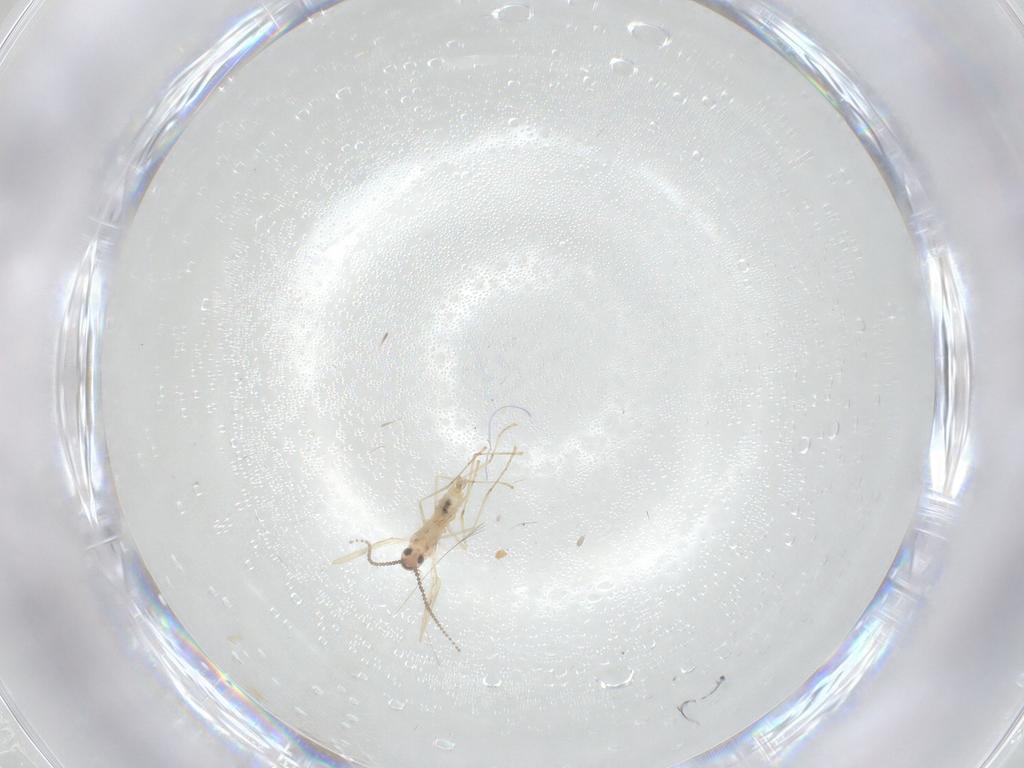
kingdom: Animalia
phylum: Arthropoda
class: Insecta
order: Diptera
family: Cecidomyiidae
